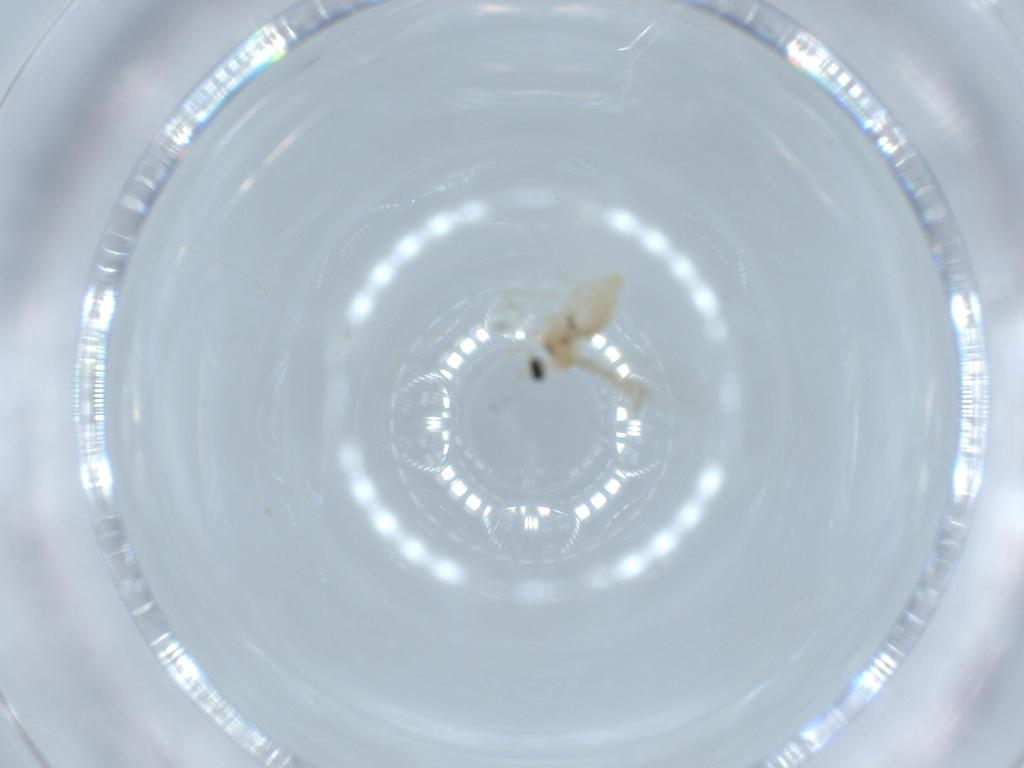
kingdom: Animalia
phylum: Arthropoda
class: Insecta
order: Diptera
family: Cecidomyiidae
